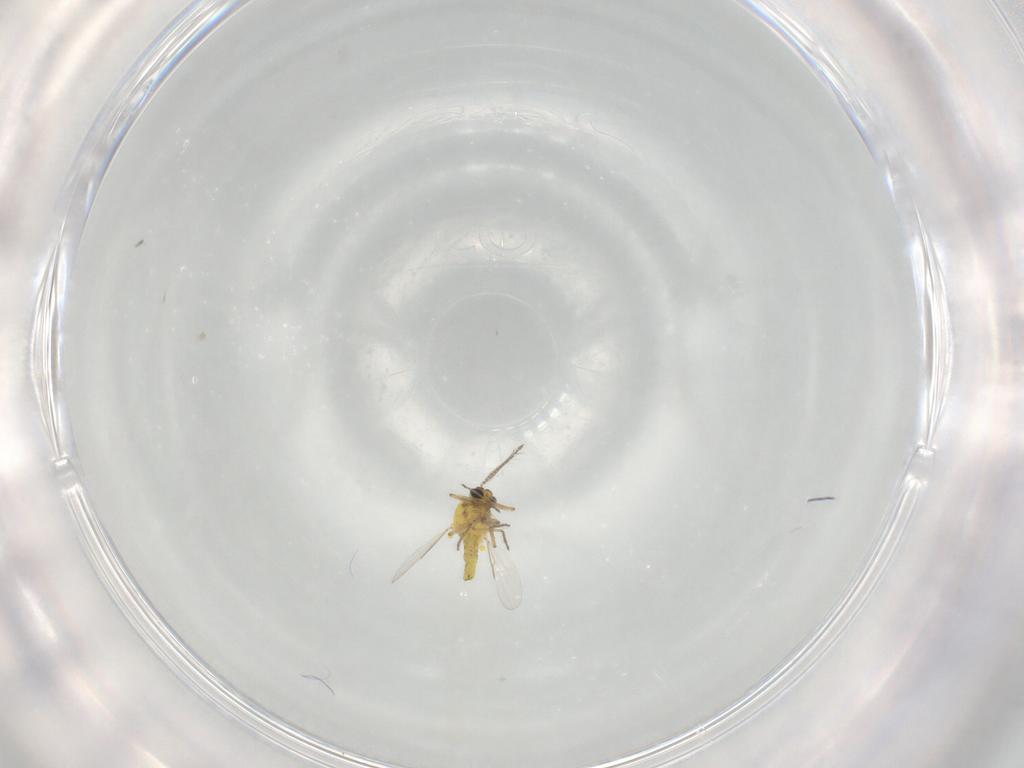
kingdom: Animalia
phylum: Arthropoda
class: Insecta
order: Diptera
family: Ceratopogonidae
